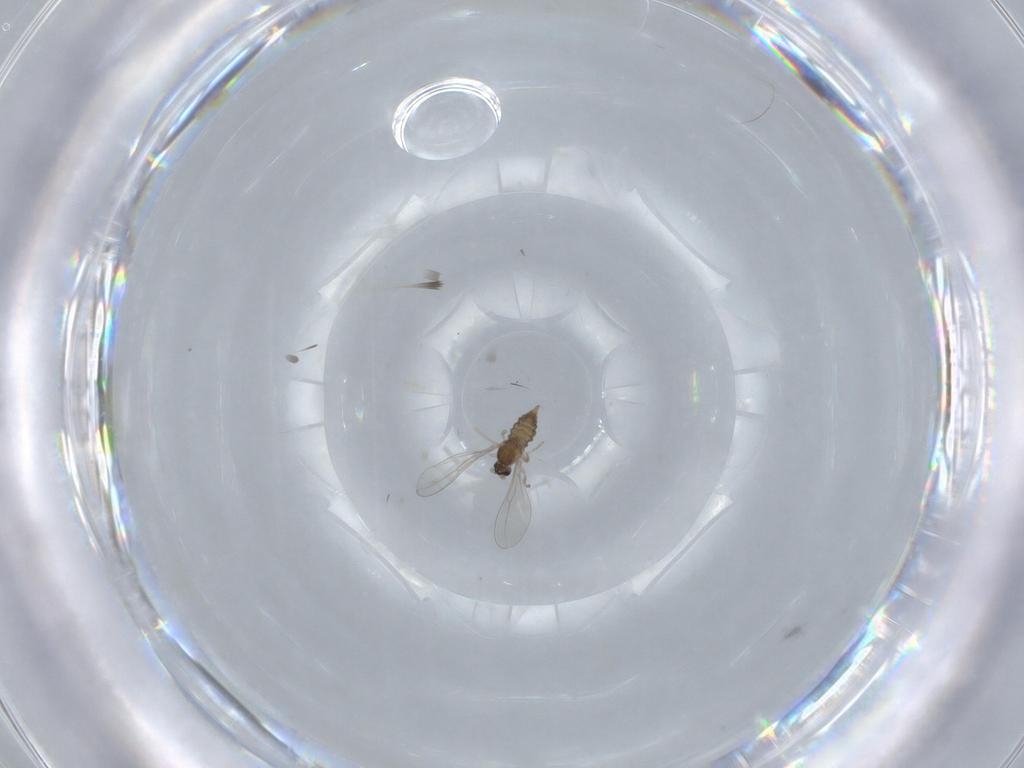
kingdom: Animalia
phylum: Arthropoda
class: Insecta
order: Diptera
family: Cecidomyiidae
